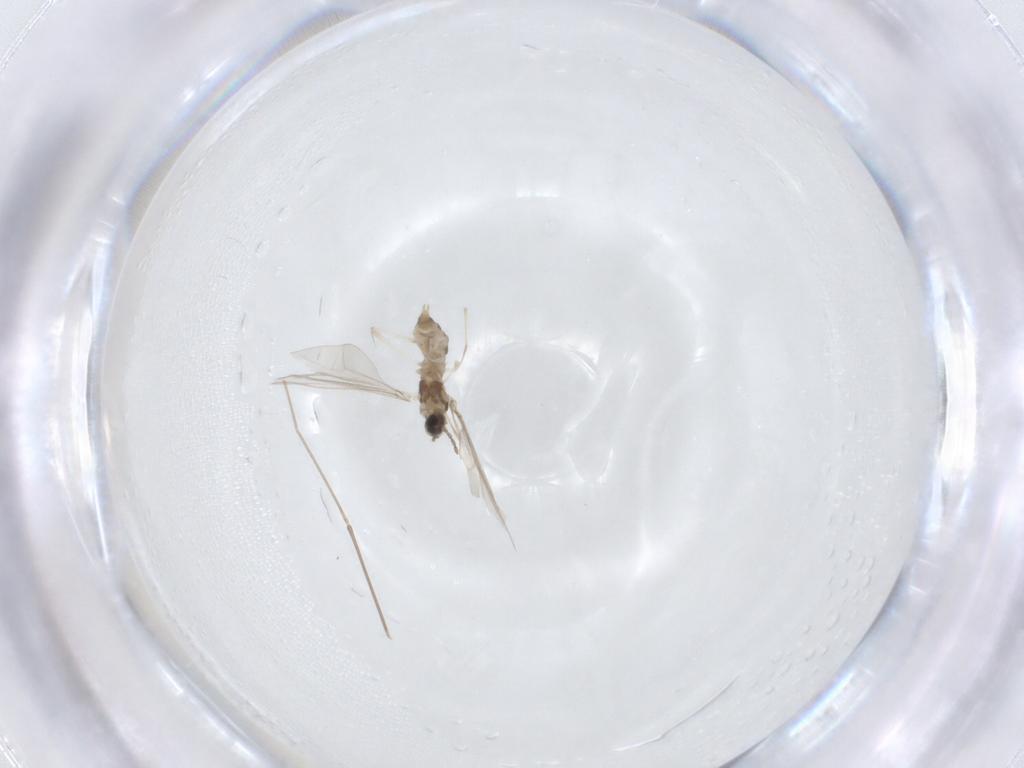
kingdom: Animalia
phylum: Arthropoda
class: Insecta
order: Diptera
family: Cecidomyiidae
